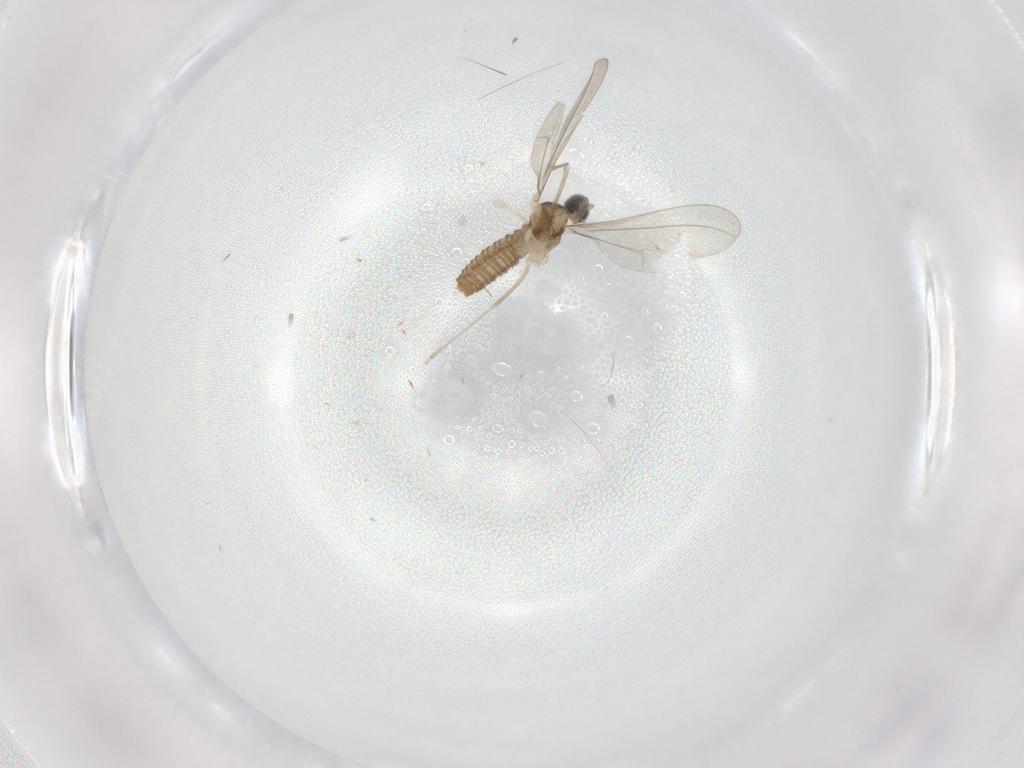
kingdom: Animalia
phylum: Arthropoda
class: Insecta
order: Diptera
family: Cecidomyiidae
